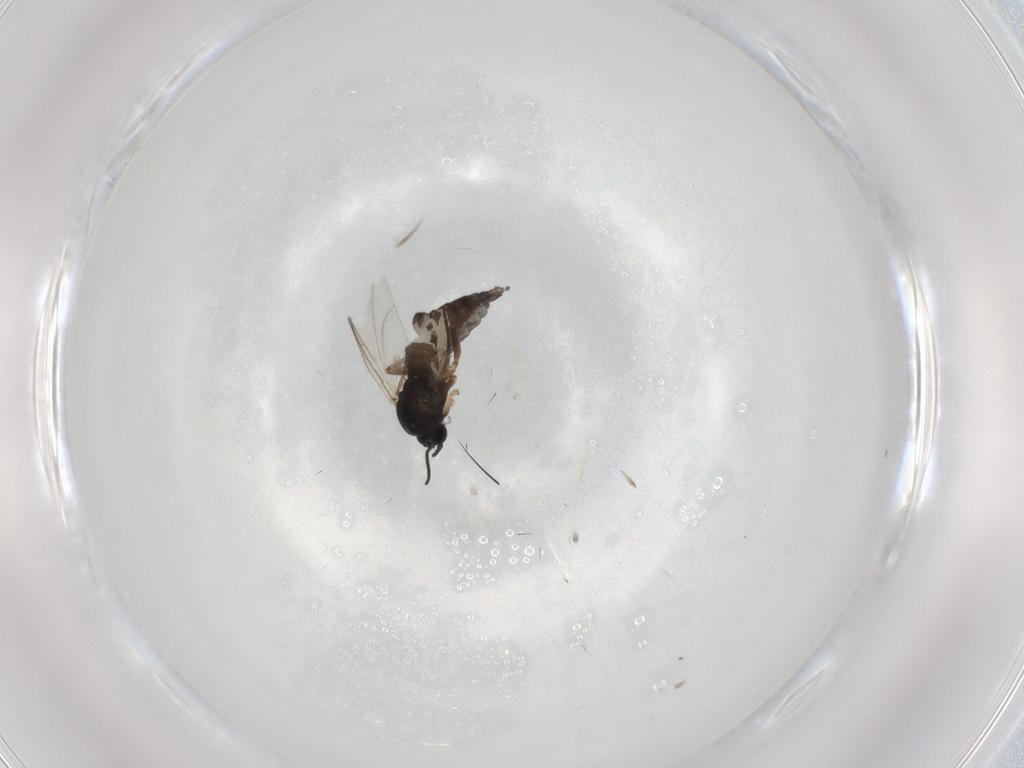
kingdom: Animalia
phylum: Arthropoda
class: Insecta
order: Diptera
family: Sciaridae
